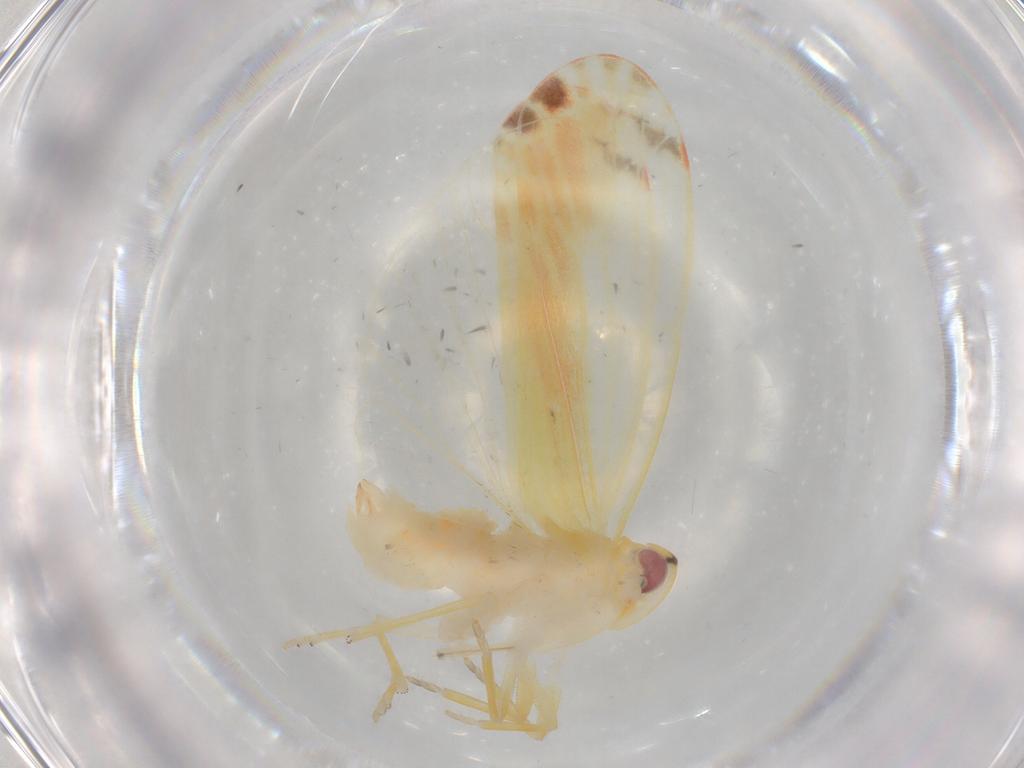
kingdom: Animalia
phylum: Arthropoda
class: Insecta
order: Hemiptera
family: Derbidae
